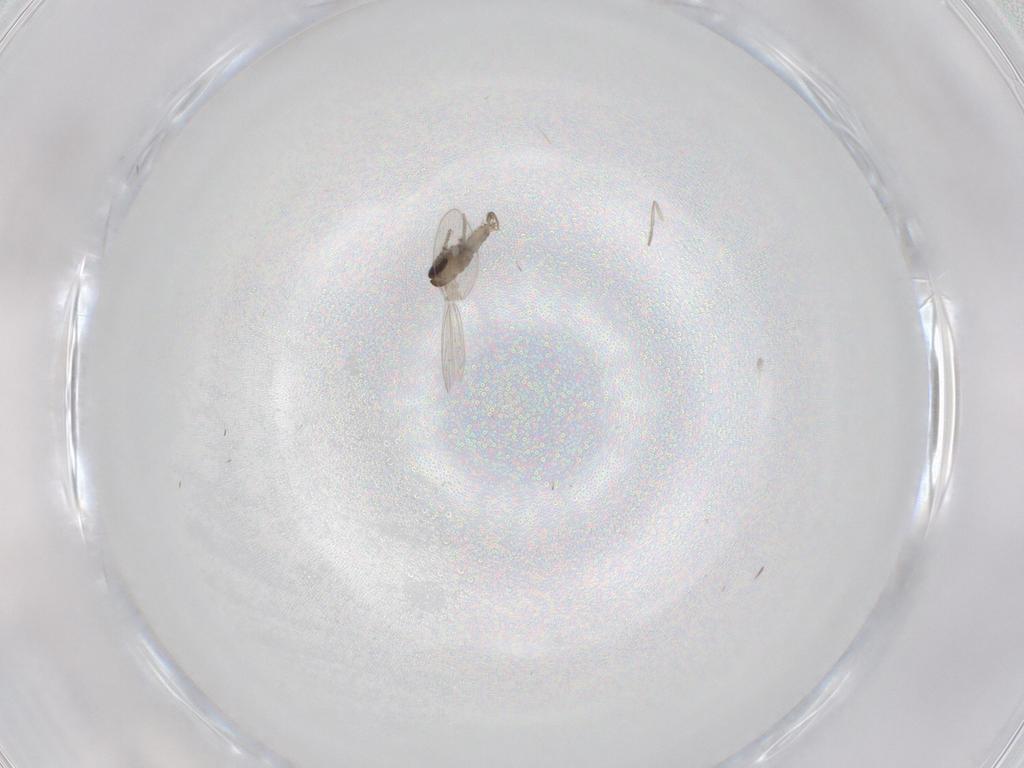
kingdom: Animalia
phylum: Arthropoda
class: Insecta
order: Diptera
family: Psychodidae
